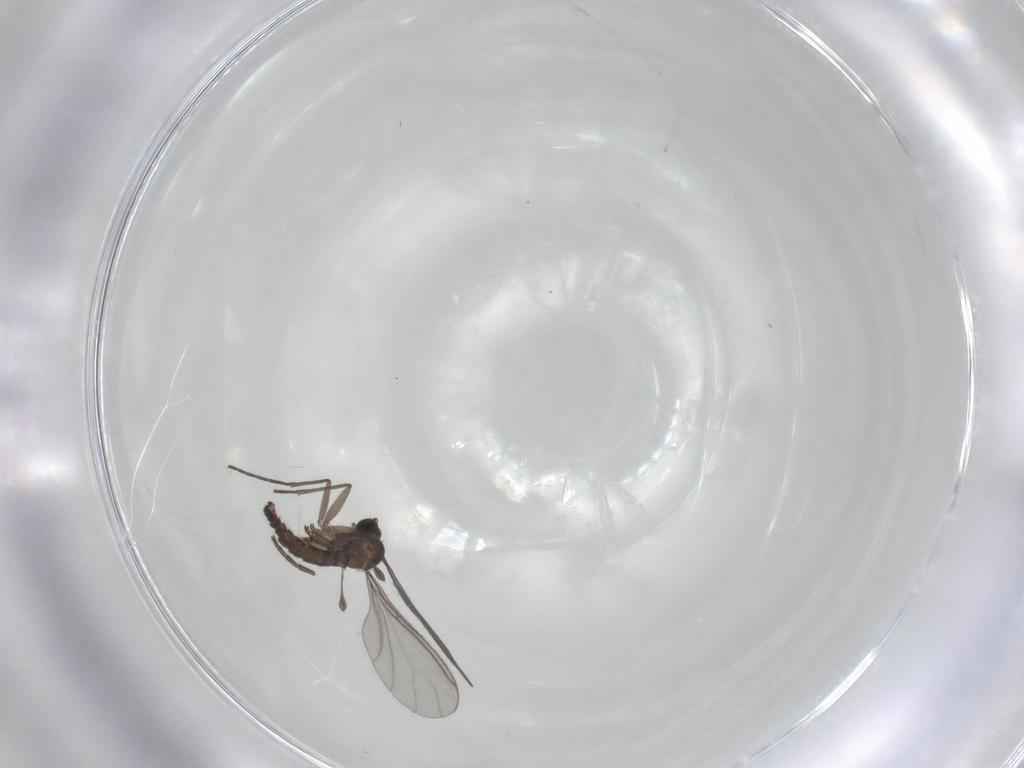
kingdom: Animalia
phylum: Arthropoda
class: Insecta
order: Diptera
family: Sciaridae
